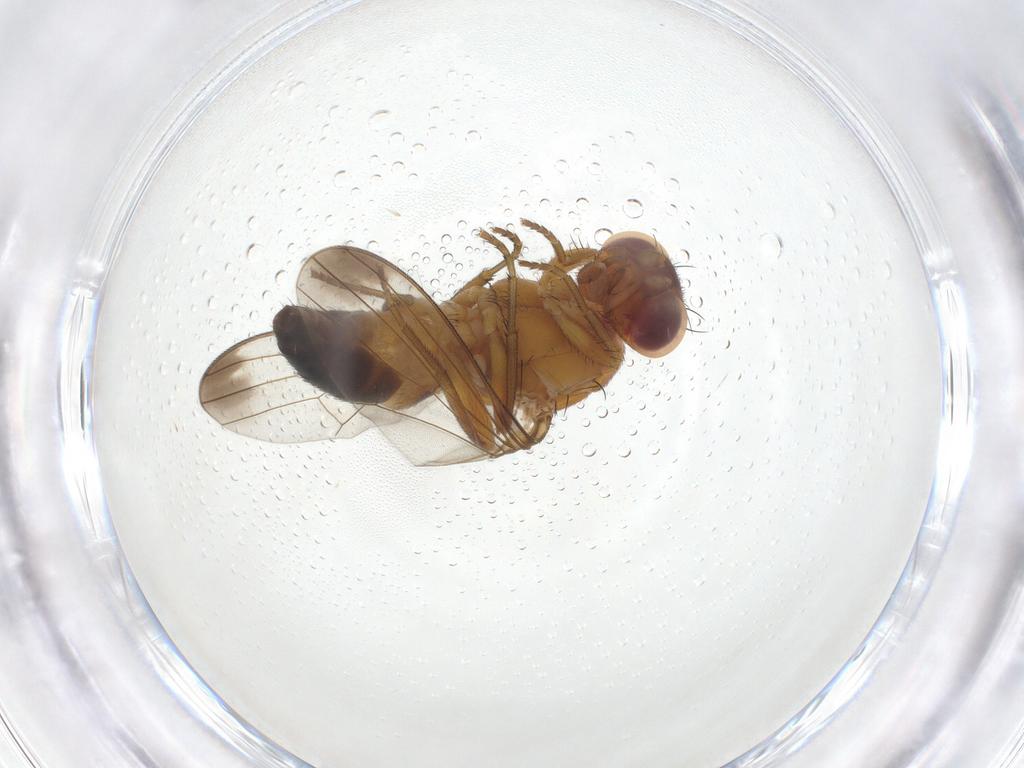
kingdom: Animalia
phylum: Arthropoda
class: Insecta
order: Diptera
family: Piophilidae
